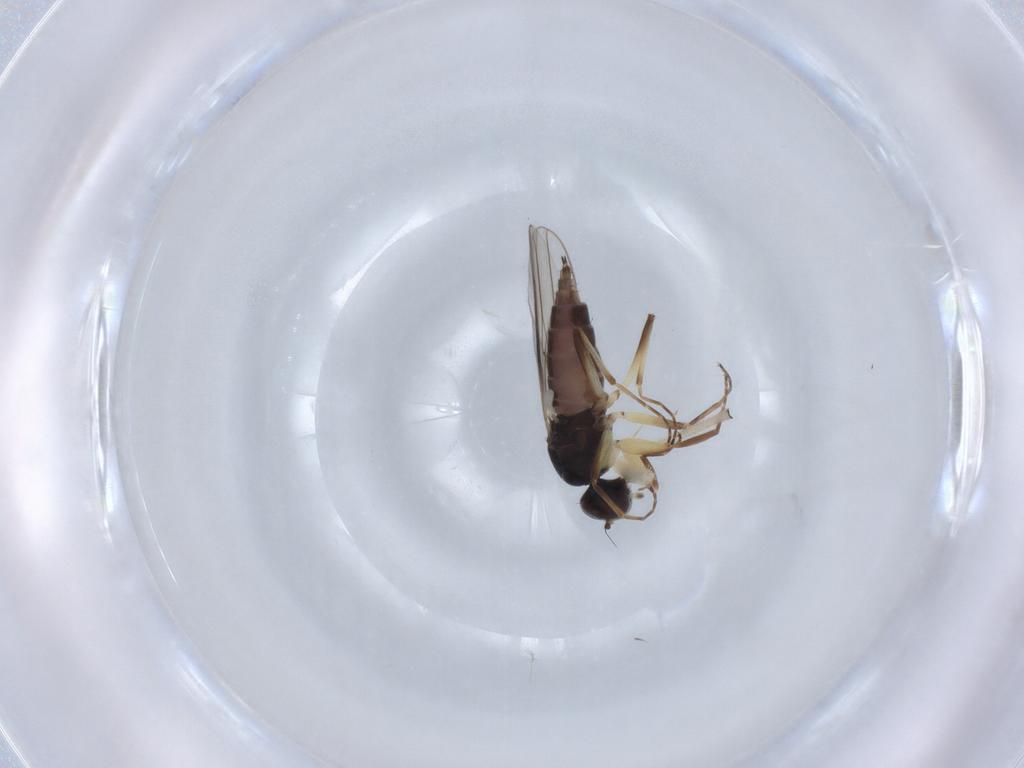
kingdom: Animalia
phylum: Arthropoda
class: Insecta
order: Diptera
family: Hybotidae
